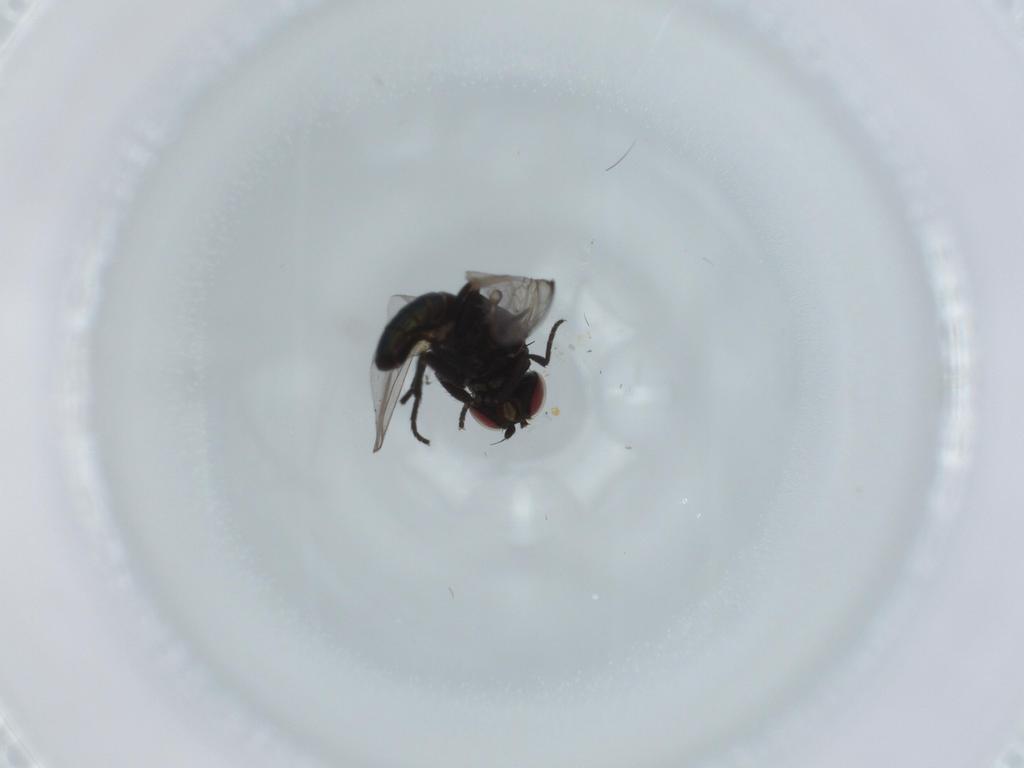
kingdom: Animalia
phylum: Arthropoda
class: Insecta
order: Diptera
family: Agromyzidae
